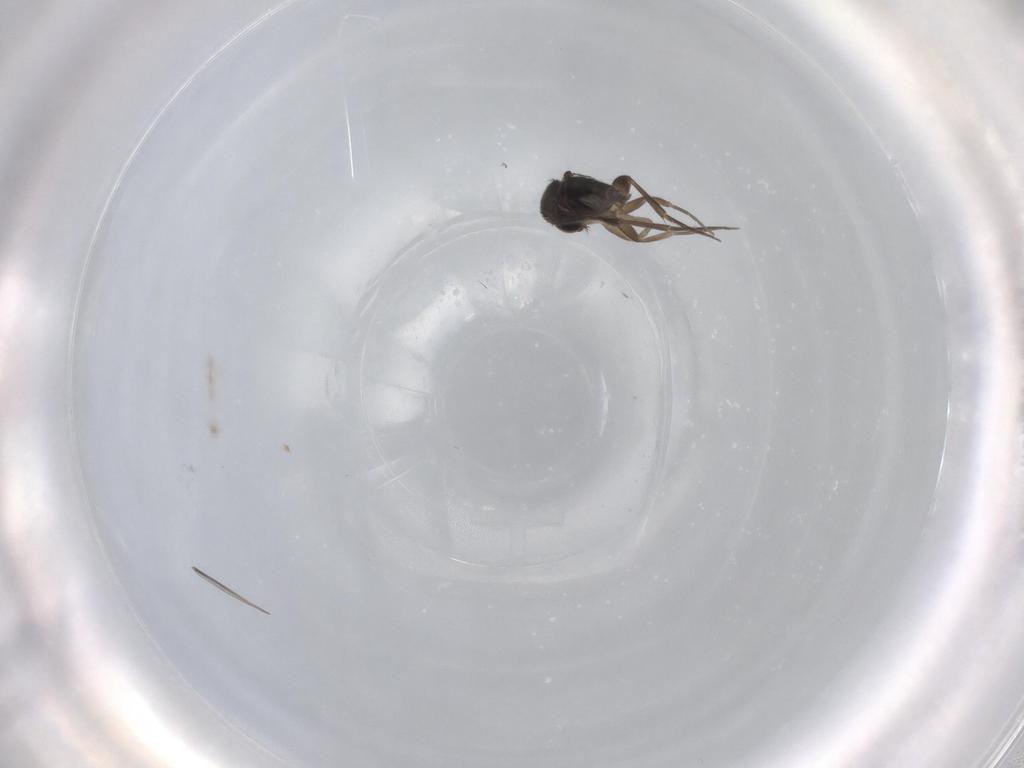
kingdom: Animalia
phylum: Arthropoda
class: Insecta
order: Diptera
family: Phoridae
